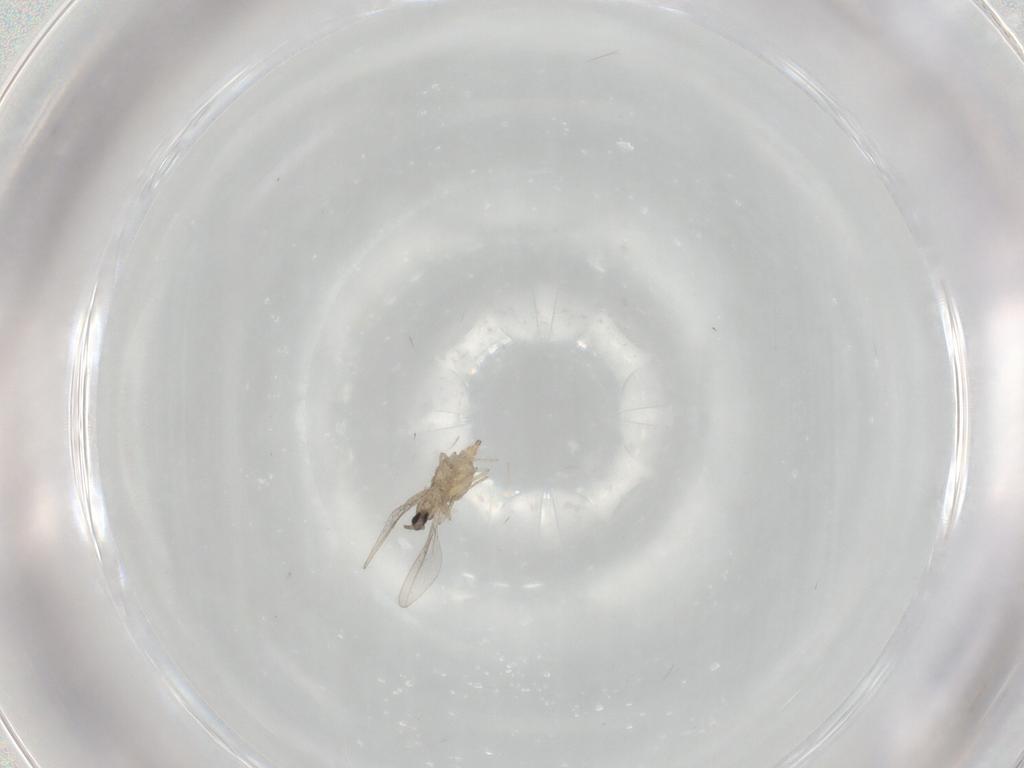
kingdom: Animalia
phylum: Arthropoda
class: Insecta
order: Diptera
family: Cecidomyiidae
